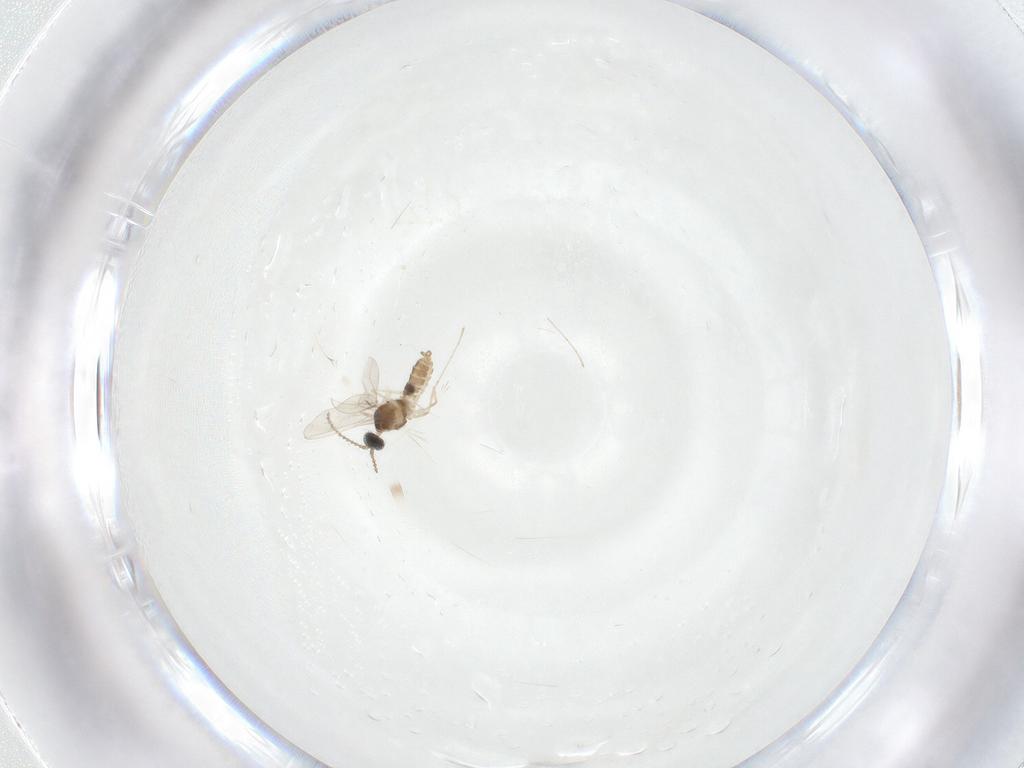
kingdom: Animalia
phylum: Arthropoda
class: Insecta
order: Diptera
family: Cecidomyiidae
